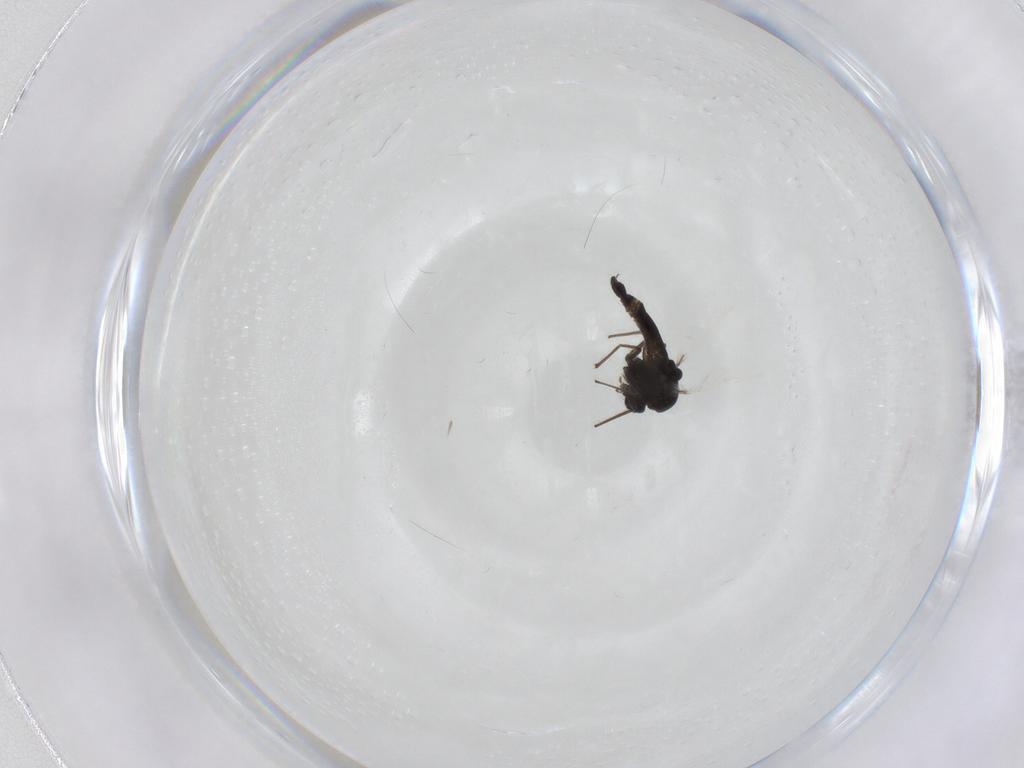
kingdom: Animalia
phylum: Arthropoda
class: Insecta
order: Diptera
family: Chironomidae
